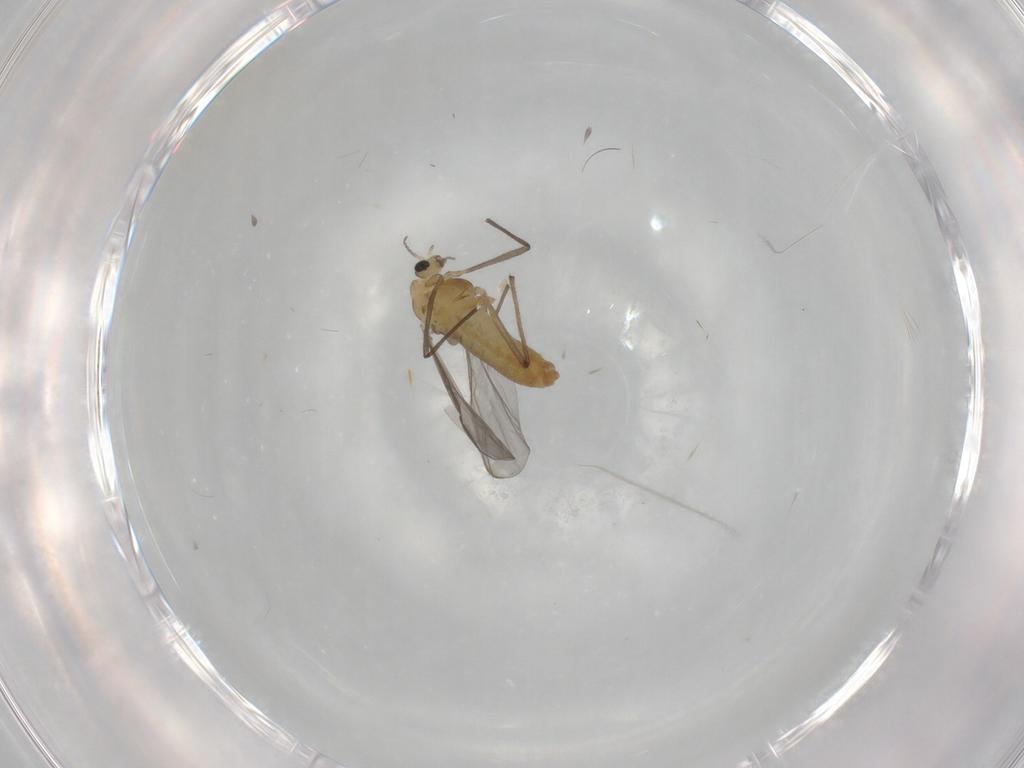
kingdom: Animalia
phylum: Arthropoda
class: Insecta
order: Diptera
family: Chironomidae
